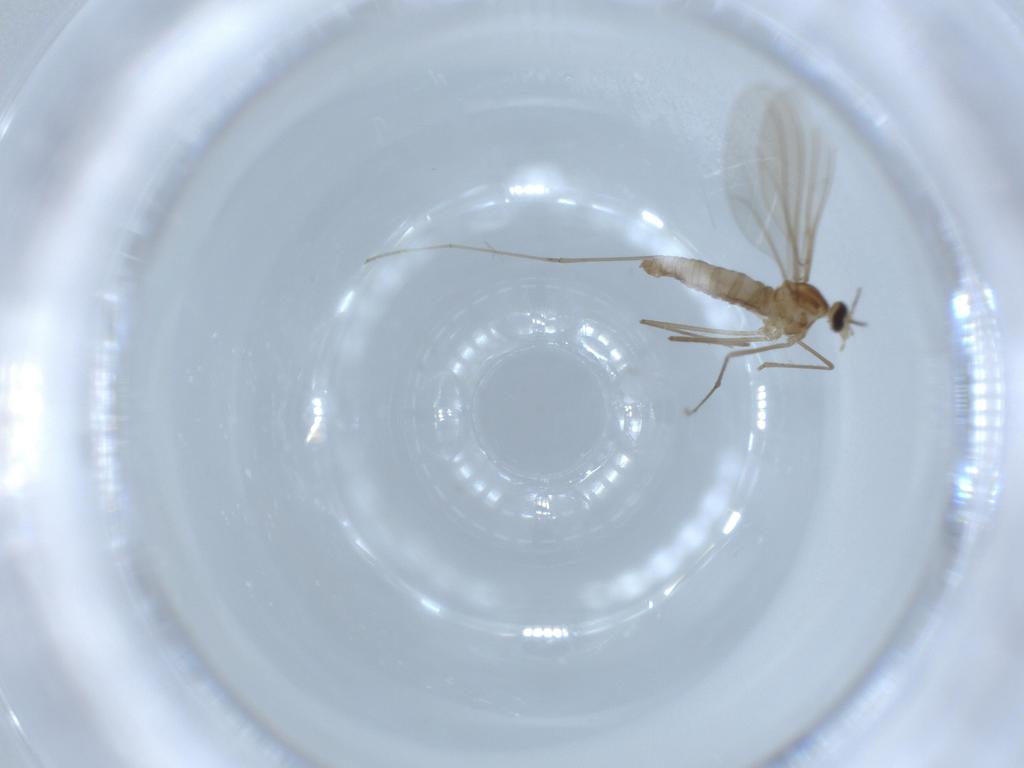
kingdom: Animalia
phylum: Arthropoda
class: Insecta
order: Diptera
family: Cecidomyiidae
